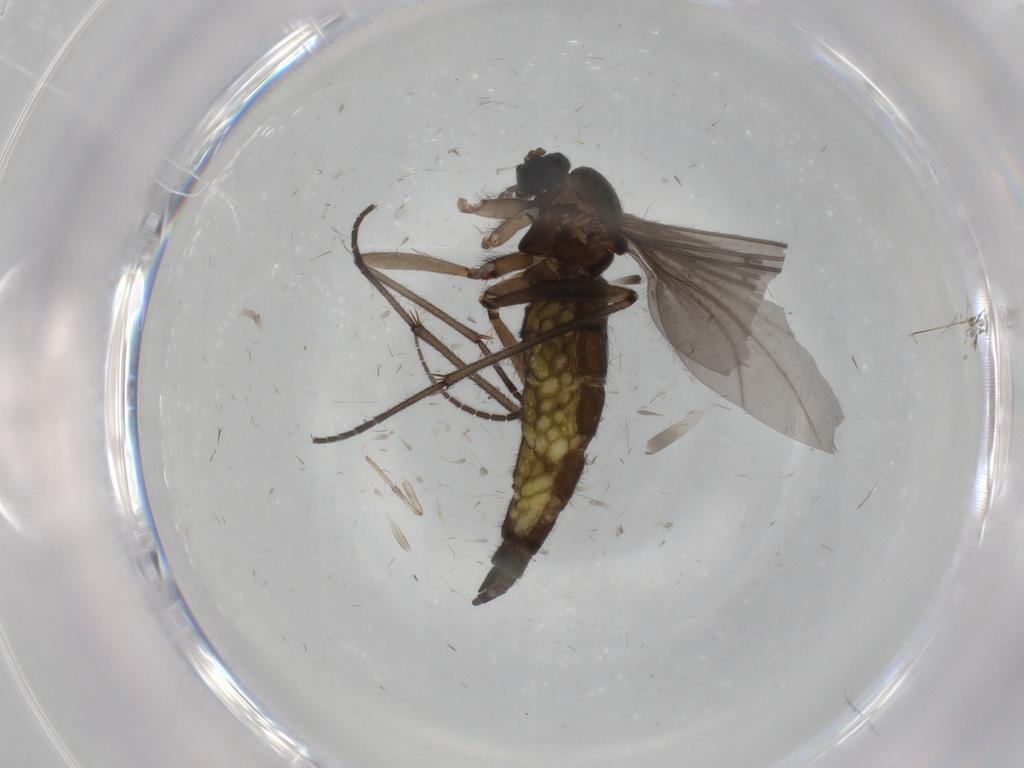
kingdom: Animalia
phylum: Arthropoda
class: Insecta
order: Diptera
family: Sciaridae
